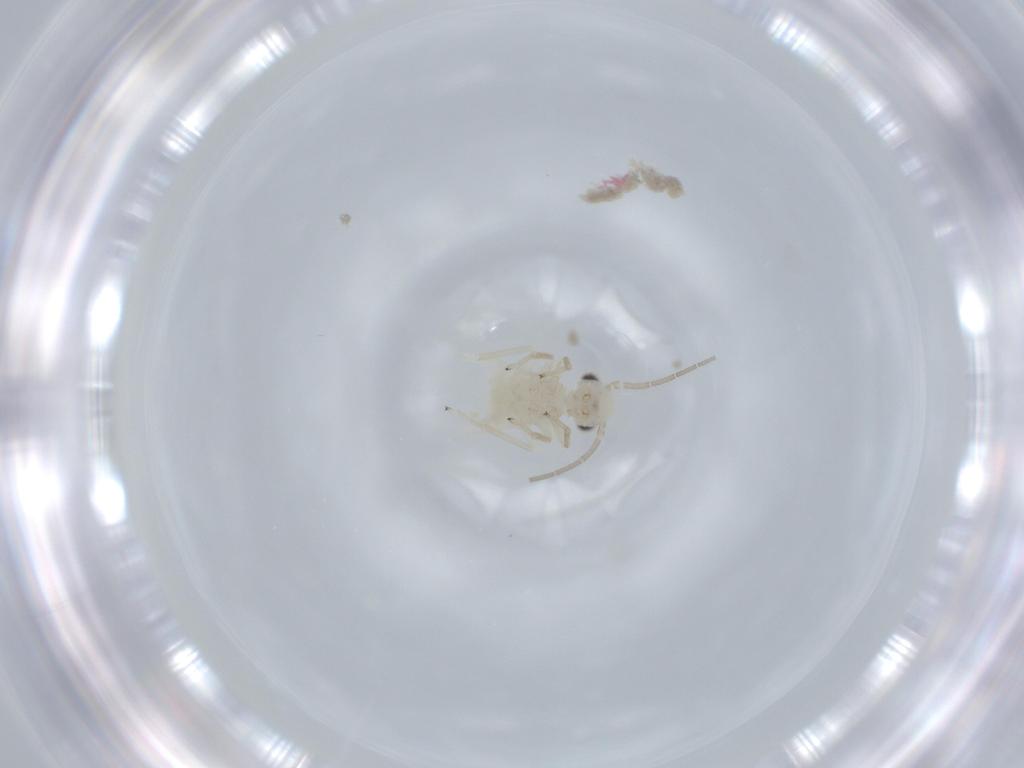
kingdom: Animalia
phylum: Arthropoda
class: Insecta
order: Psocodea
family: Caeciliusidae
